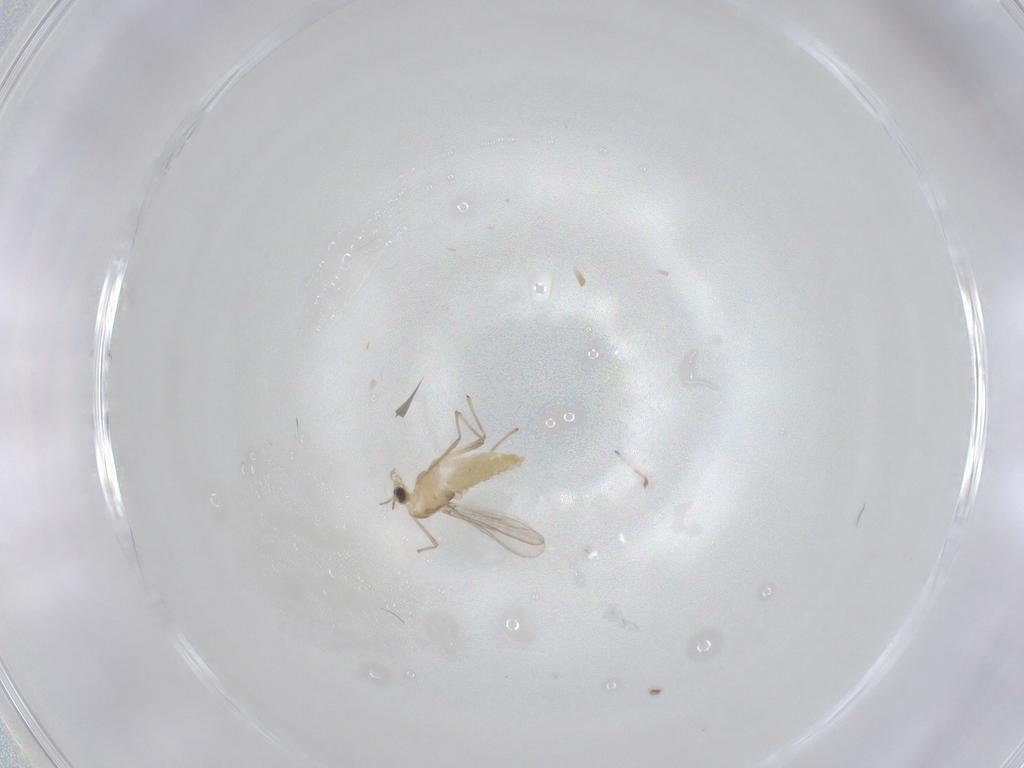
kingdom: Animalia
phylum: Arthropoda
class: Insecta
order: Diptera
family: Chironomidae
